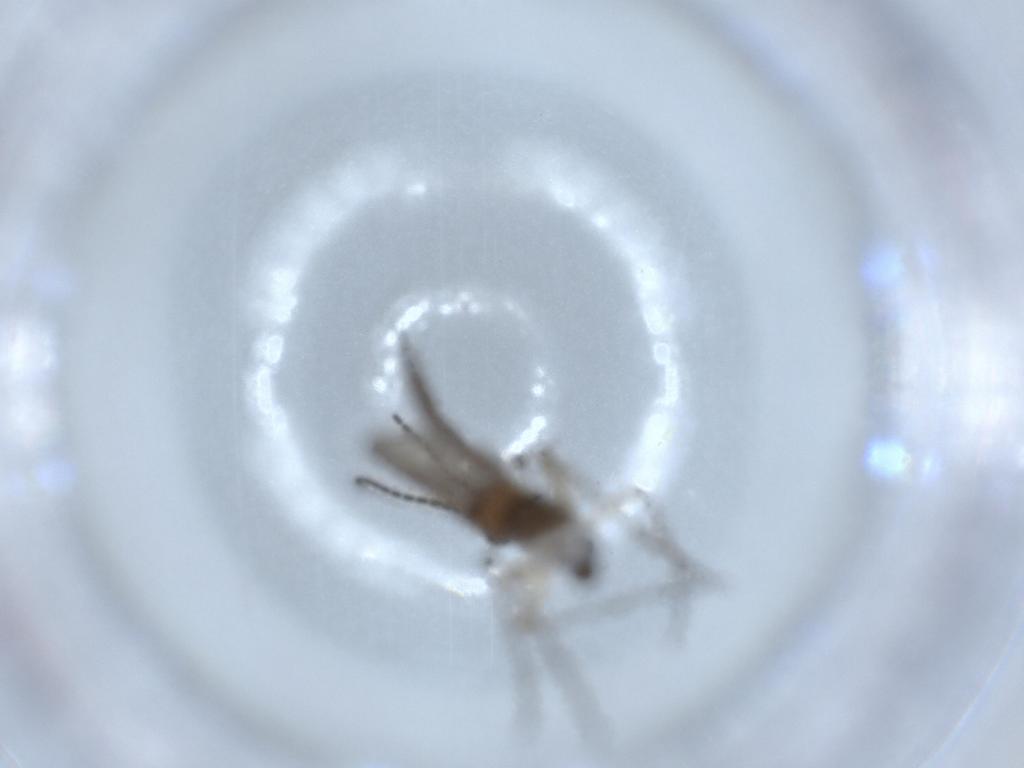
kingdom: Animalia
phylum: Arthropoda
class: Insecta
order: Diptera
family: Sciaridae
